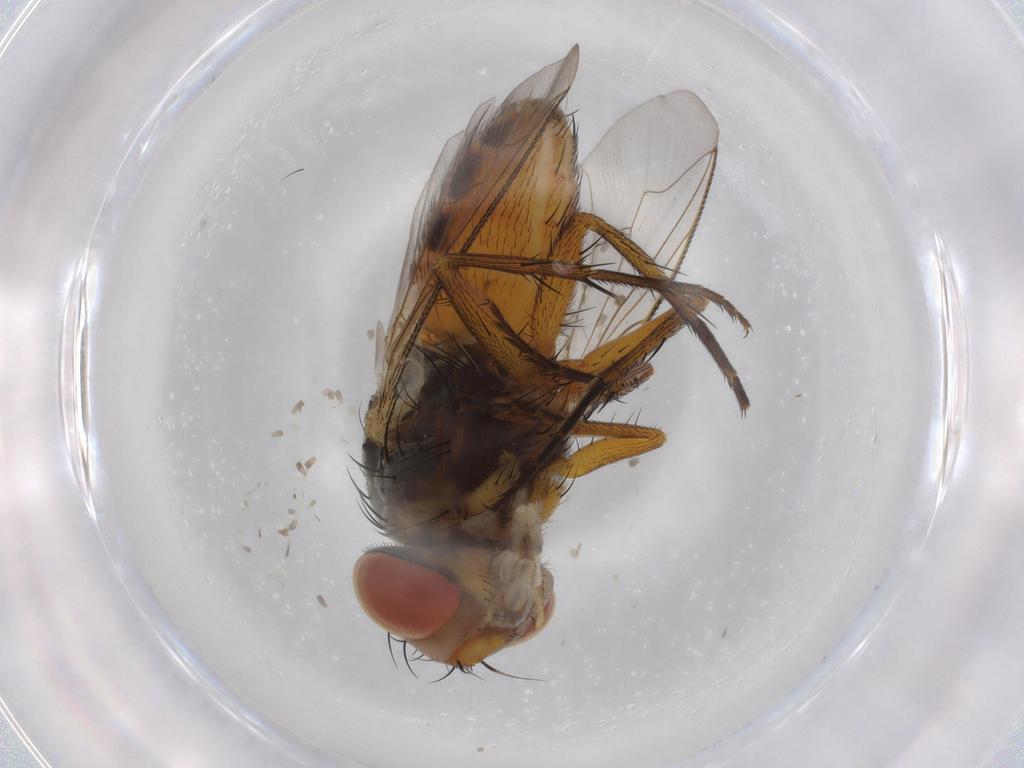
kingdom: Animalia
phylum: Arthropoda
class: Insecta
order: Diptera
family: Sarcophagidae
